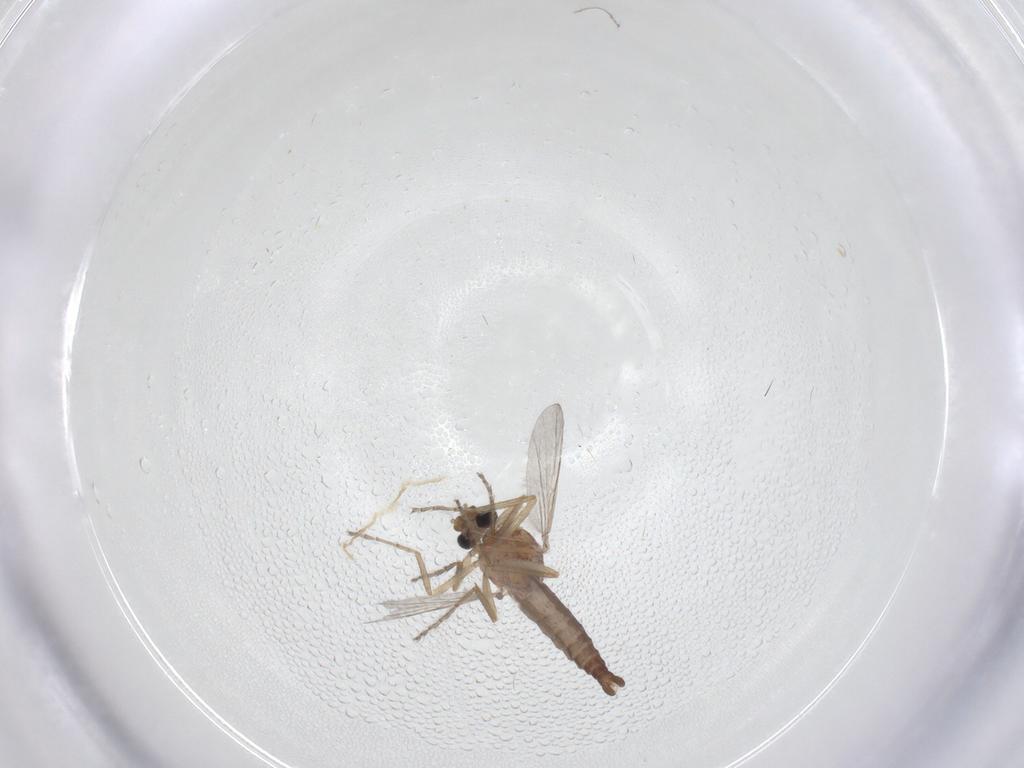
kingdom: Animalia
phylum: Arthropoda
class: Insecta
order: Diptera
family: Ceratopogonidae
